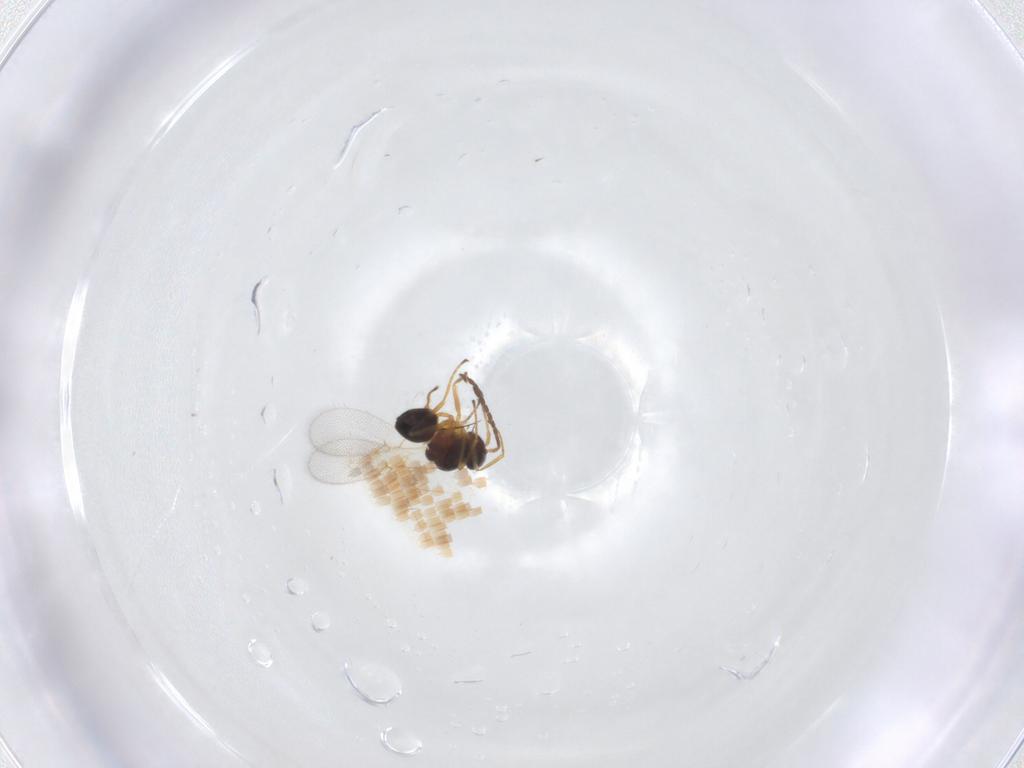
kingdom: Animalia
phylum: Arthropoda
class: Insecta
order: Hymenoptera
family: Figitidae
